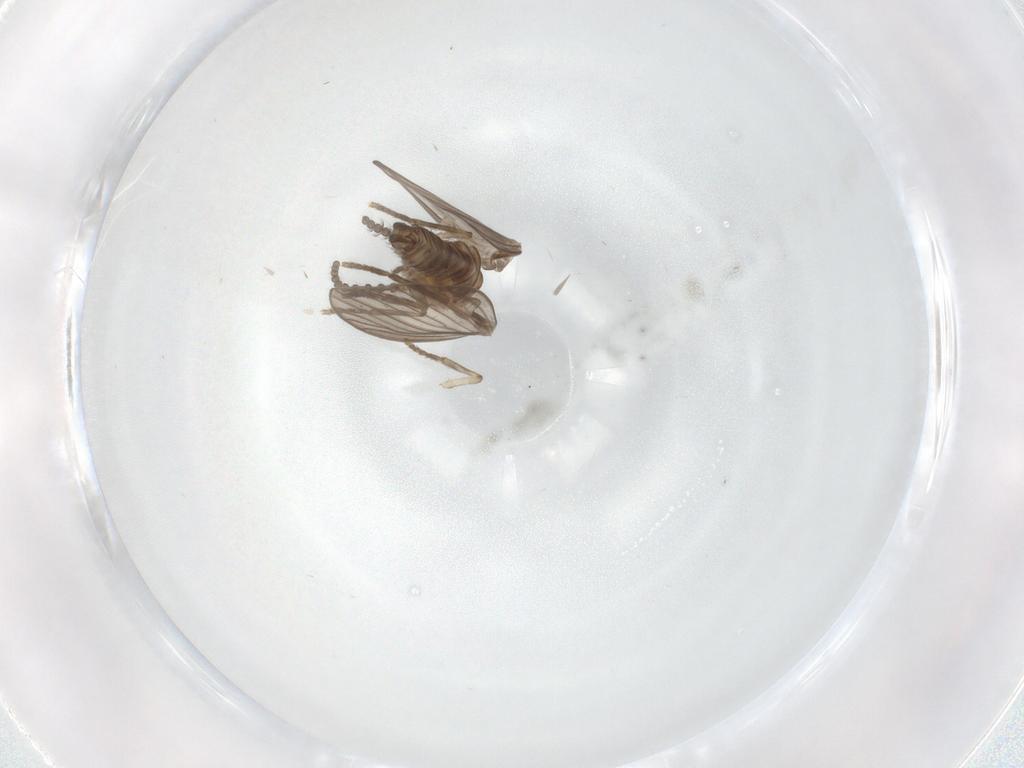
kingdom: Animalia
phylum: Arthropoda
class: Insecta
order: Diptera
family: Psychodidae
